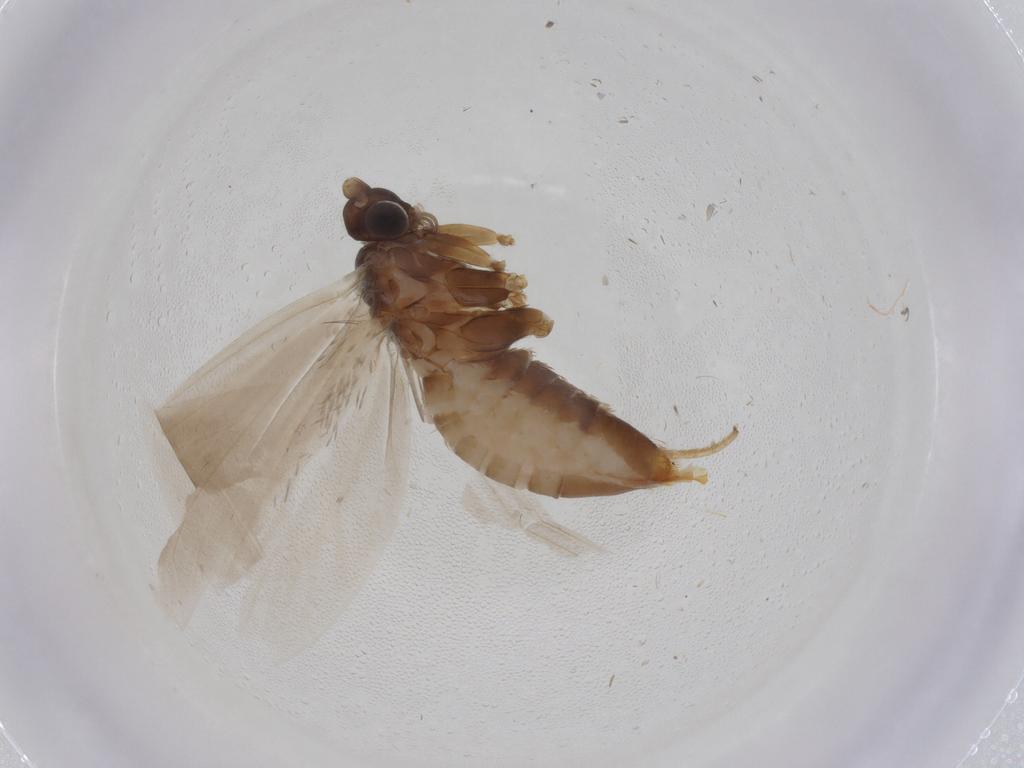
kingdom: Animalia
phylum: Arthropoda
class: Insecta
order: Lepidoptera
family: Adelidae
